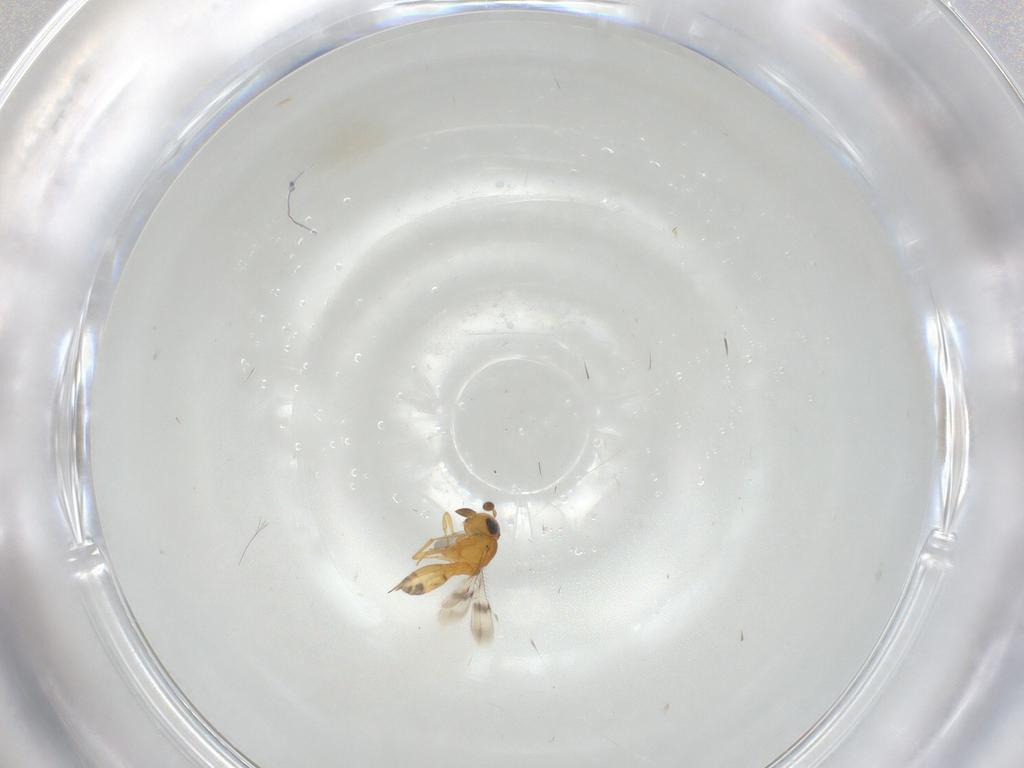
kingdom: Animalia
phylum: Arthropoda
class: Insecta
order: Hymenoptera
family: Scelionidae
